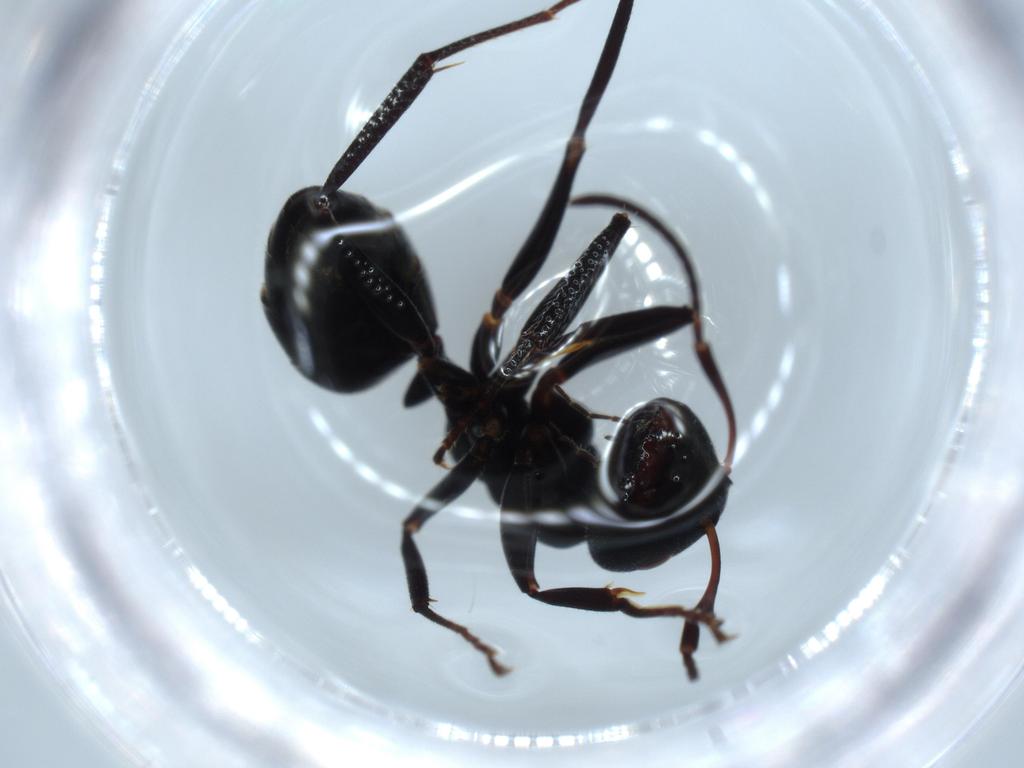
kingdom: Animalia
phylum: Arthropoda
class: Insecta
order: Hymenoptera
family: Formicidae
